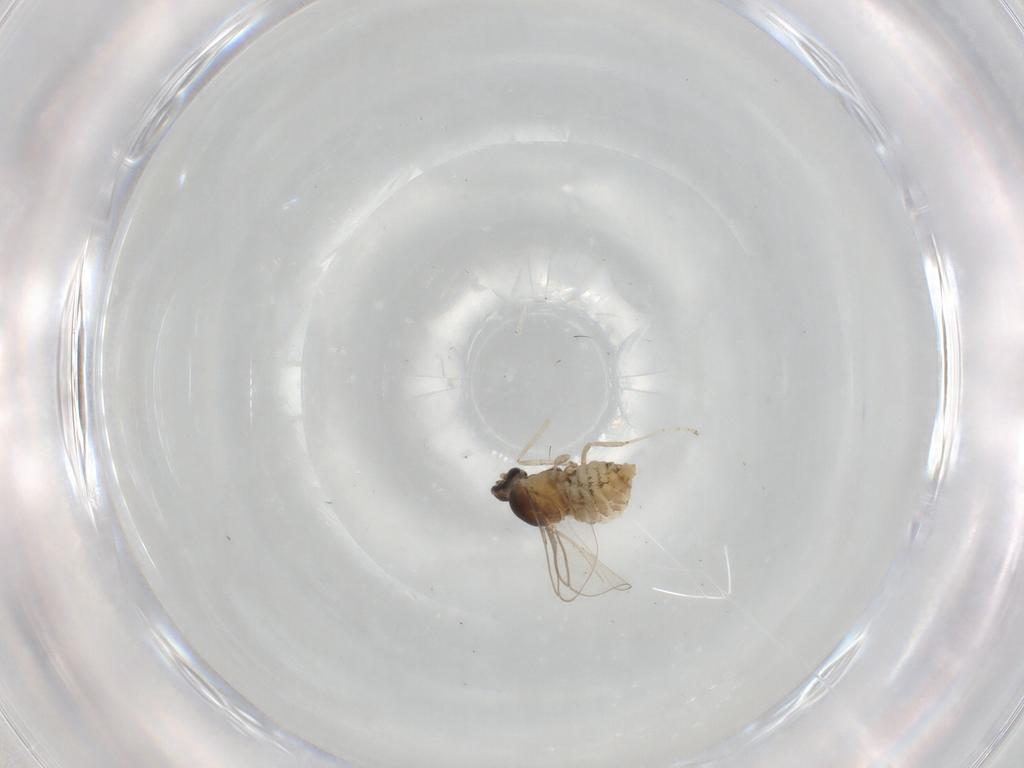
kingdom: Animalia
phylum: Arthropoda
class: Insecta
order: Diptera
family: Cecidomyiidae
